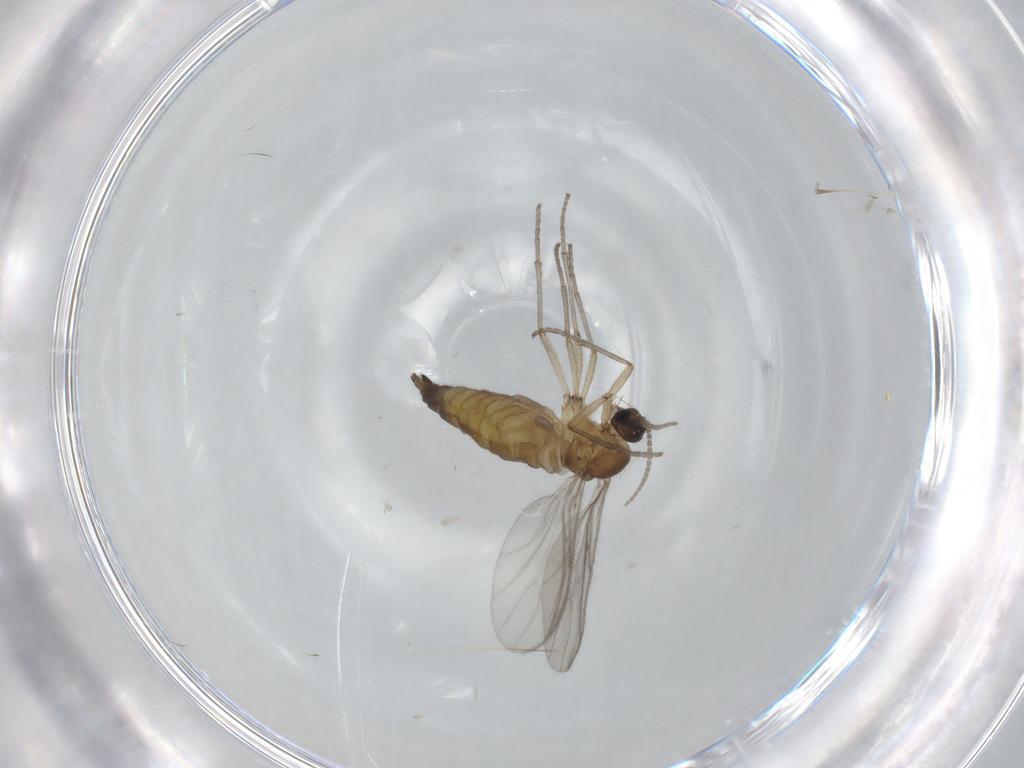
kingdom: Animalia
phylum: Arthropoda
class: Insecta
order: Diptera
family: Sciaridae
